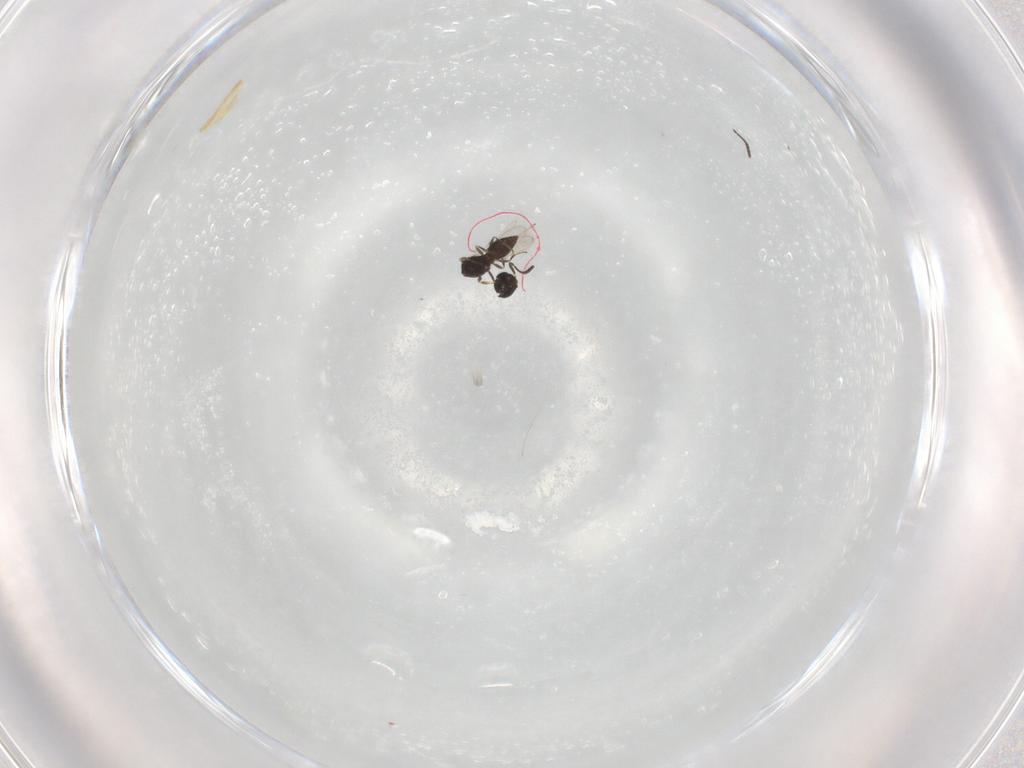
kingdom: Animalia
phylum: Arthropoda
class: Insecta
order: Hymenoptera
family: Scelionidae
